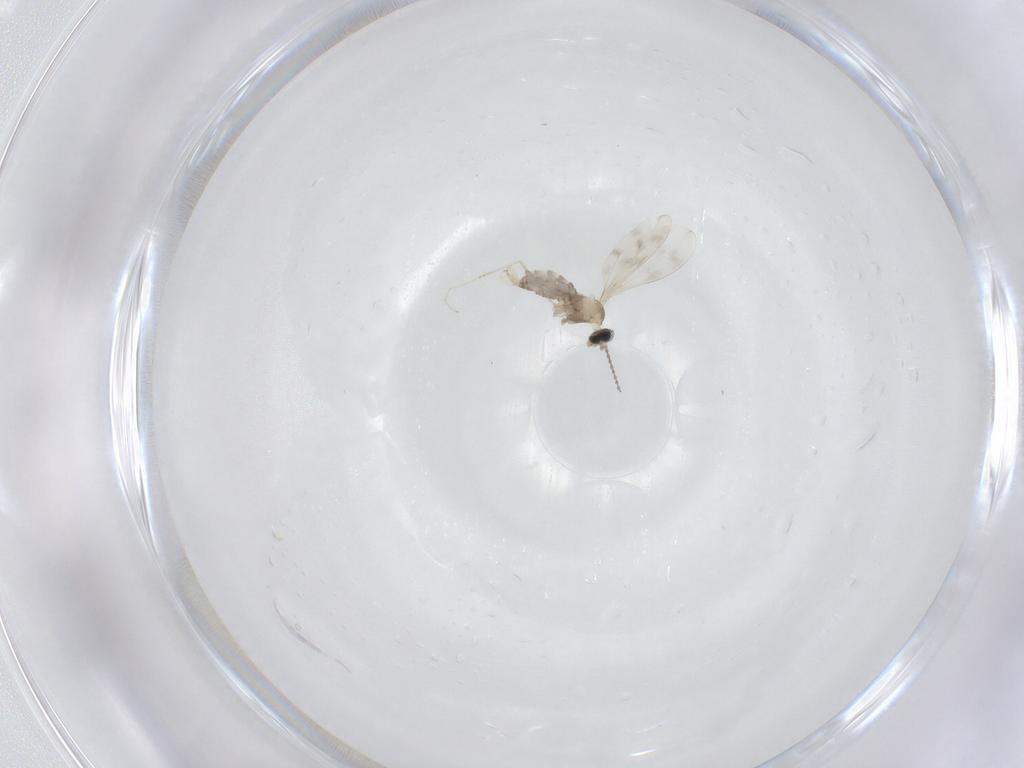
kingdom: Animalia
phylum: Arthropoda
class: Insecta
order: Diptera
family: Cecidomyiidae
